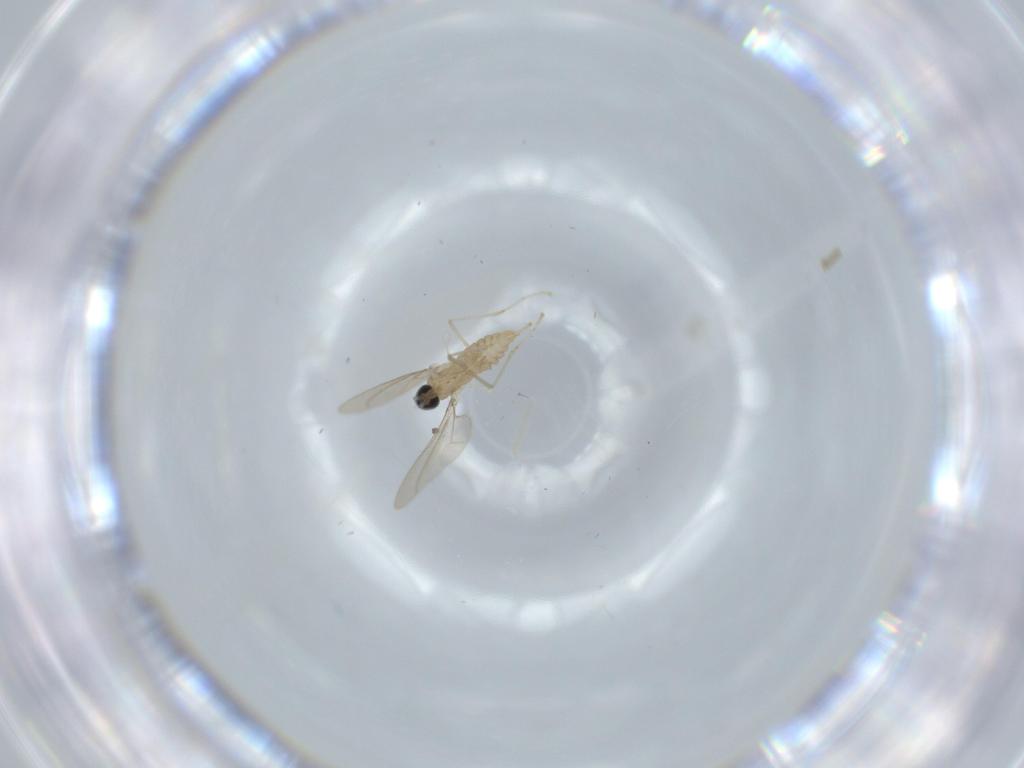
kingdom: Animalia
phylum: Arthropoda
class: Insecta
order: Diptera
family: Cecidomyiidae
